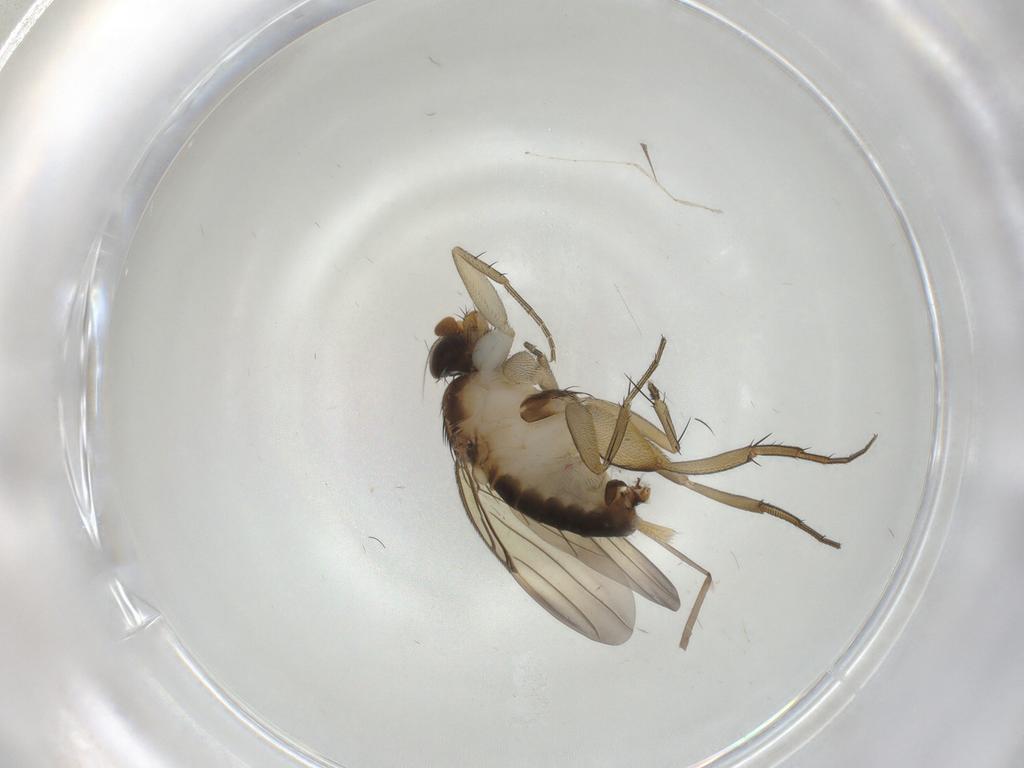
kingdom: Animalia
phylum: Arthropoda
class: Insecta
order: Diptera
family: Phoridae
